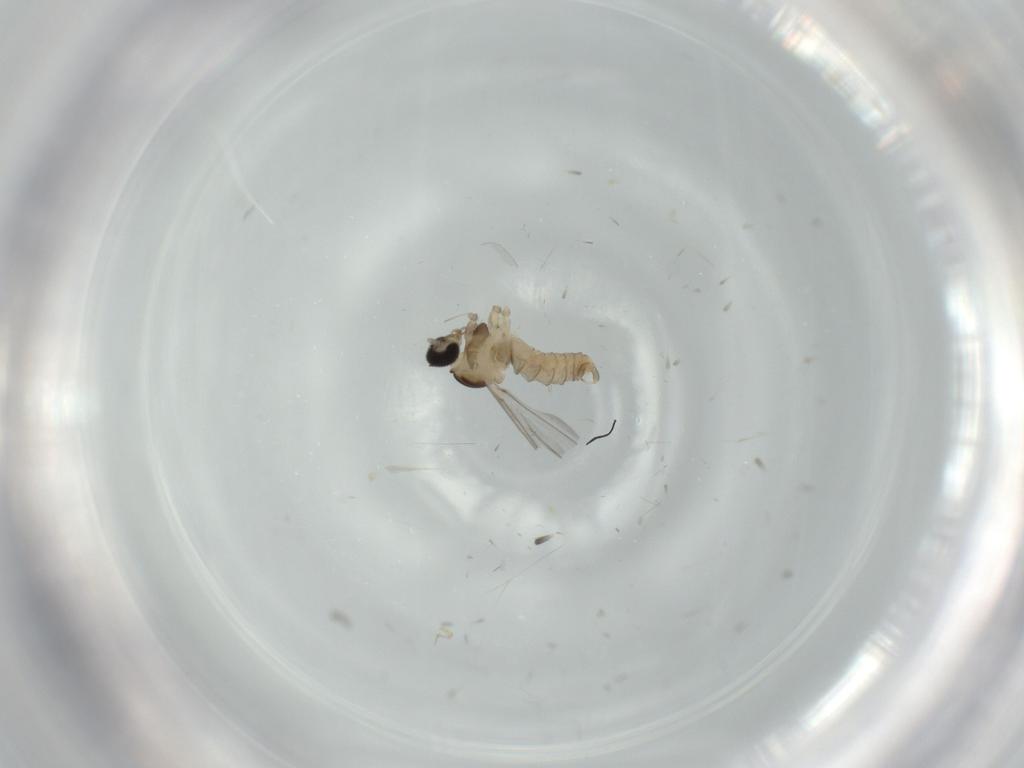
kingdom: Animalia
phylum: Arthropoda
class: Insecta
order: Diptera
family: Cecidomyiidae
